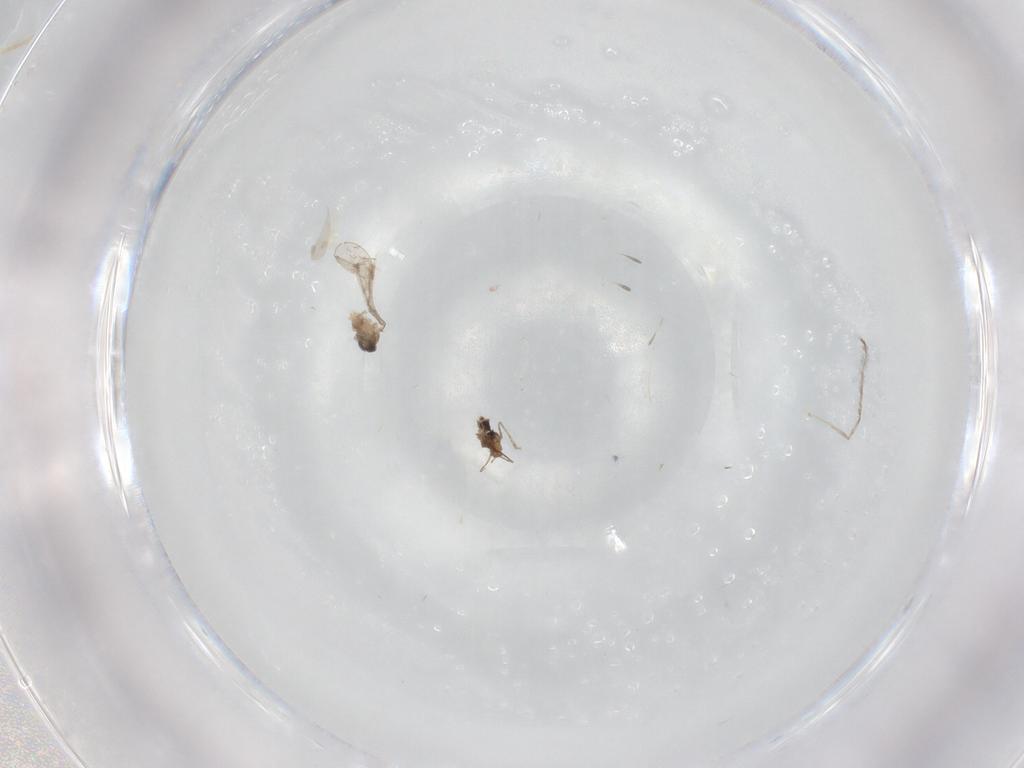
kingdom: Animalia
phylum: Arthropoda
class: Insecta
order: Diptera
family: Cecidomyiidae
